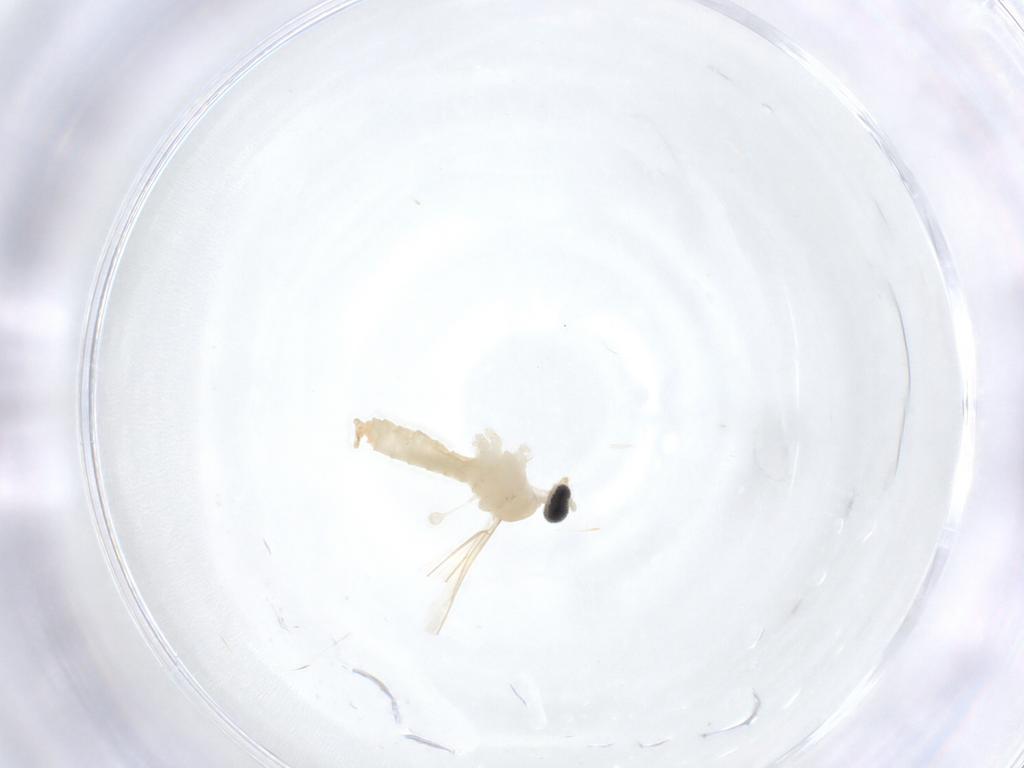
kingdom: Animalia
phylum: Arthropoda
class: Insecta
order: Diptera
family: Cecidomyiidae
